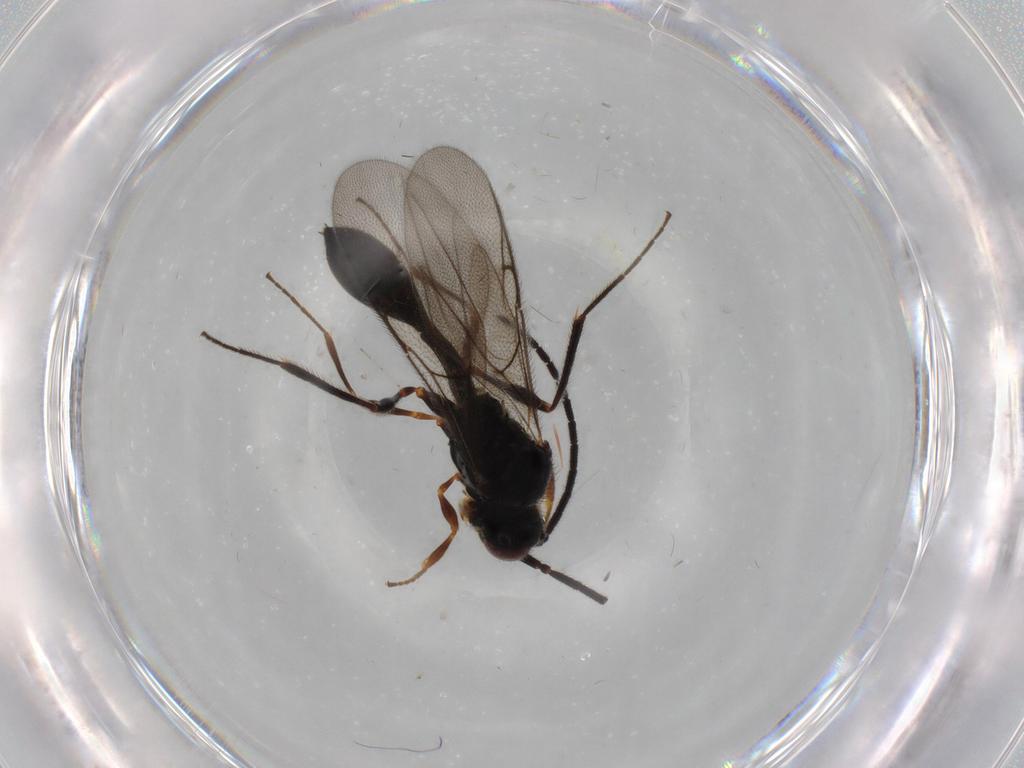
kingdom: Animalia
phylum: Arthropoda
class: Insecta
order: Hymenoptera
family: Diapriidae
